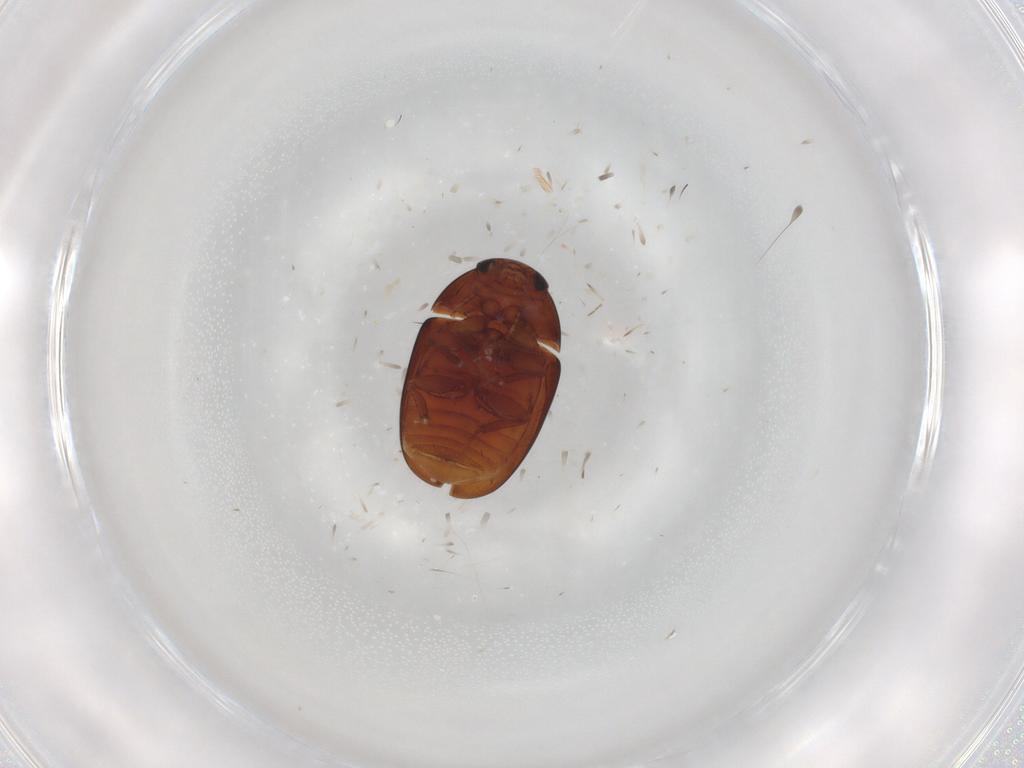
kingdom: Animalia
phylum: Arthropoda
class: Insecta
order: Coleoptera
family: Phalacridae
